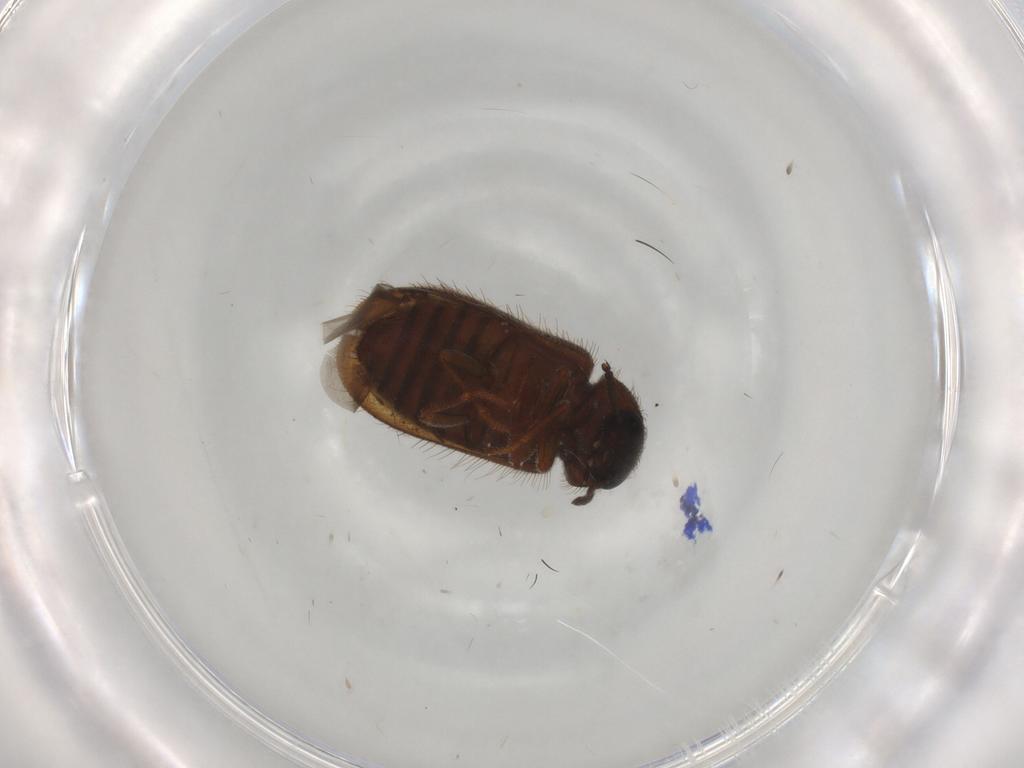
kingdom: Animalia
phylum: Arthropoda
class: Insecta
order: Coleoptera
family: Melyridae
